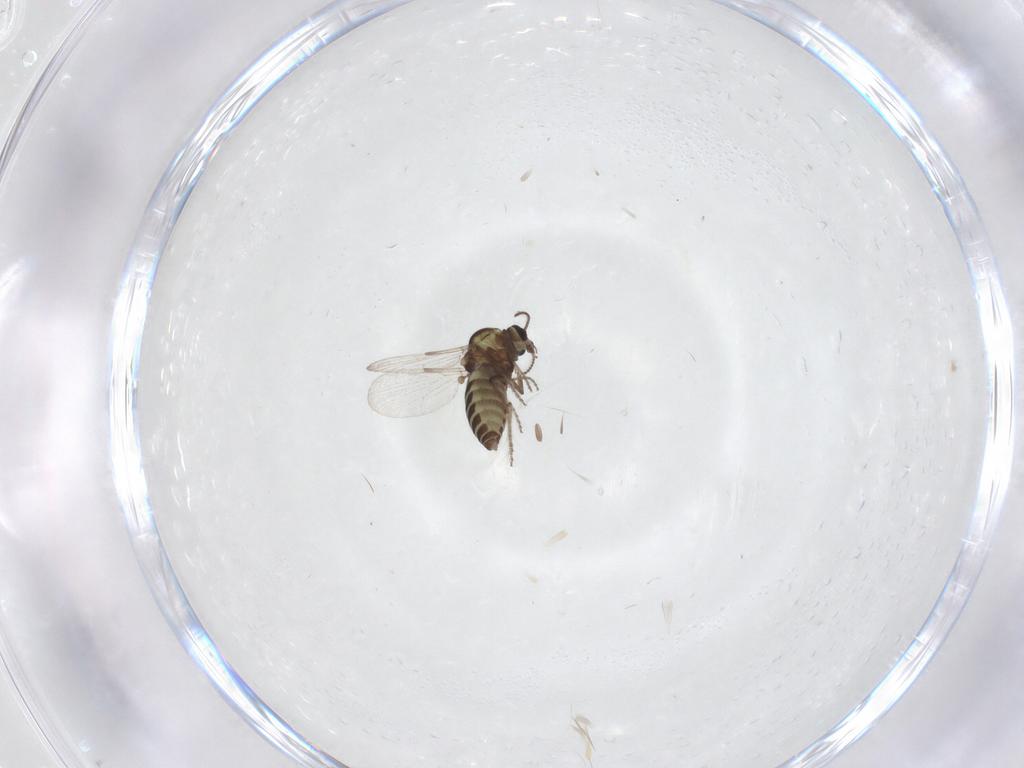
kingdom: Animalia
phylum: Arthropoda
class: Insecta
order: Diptera
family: Ceratopogonidae
